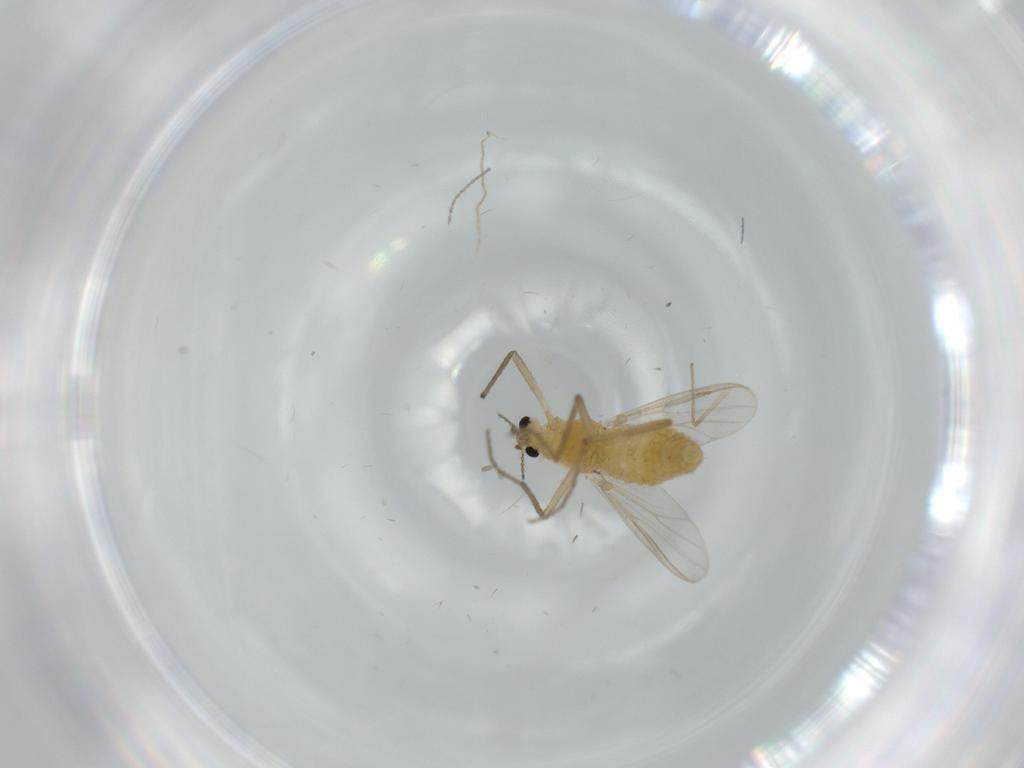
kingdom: Animalia
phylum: Arthropoda
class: Insecta
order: Diptera
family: Chironomidae
